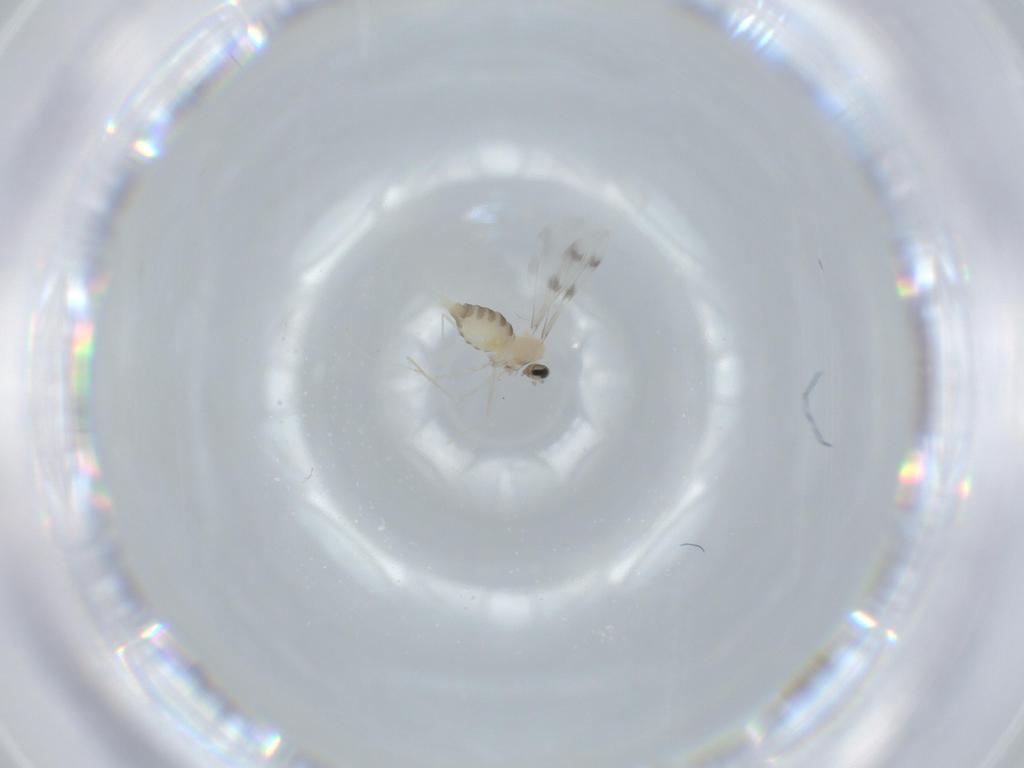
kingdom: Animalia
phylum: Arthropoda
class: Insecta
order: Diptera
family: Cecidomyiidae
